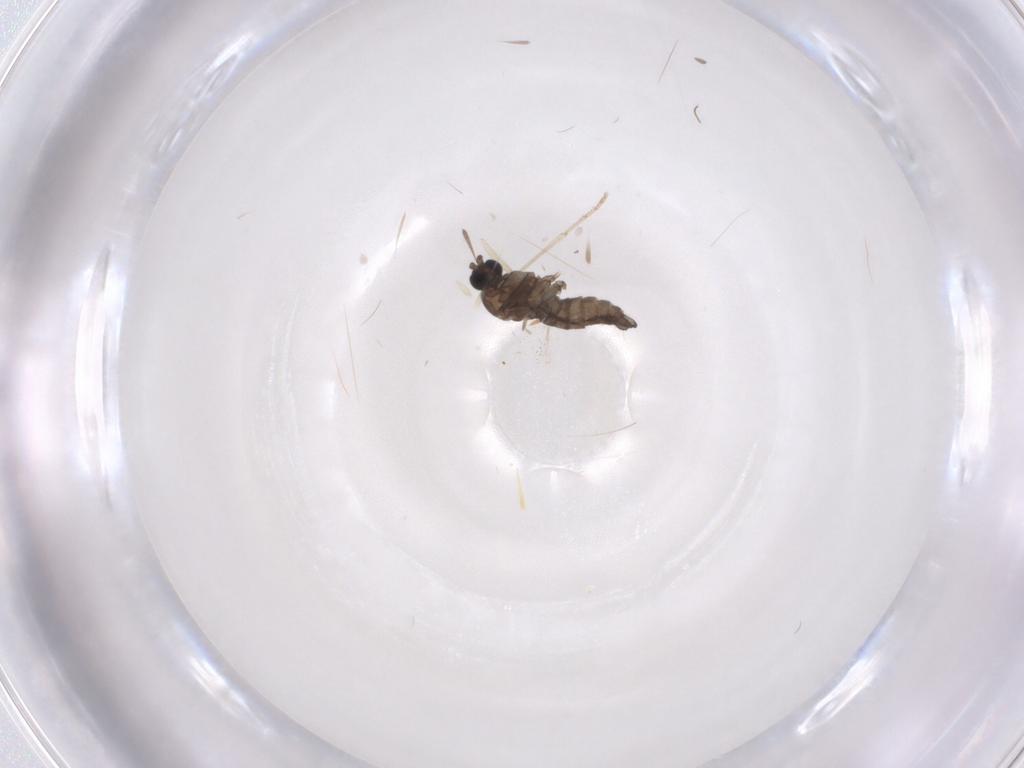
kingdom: Animalia
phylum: Arthropoda
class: Insecta
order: Diptera
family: Sciaridae
